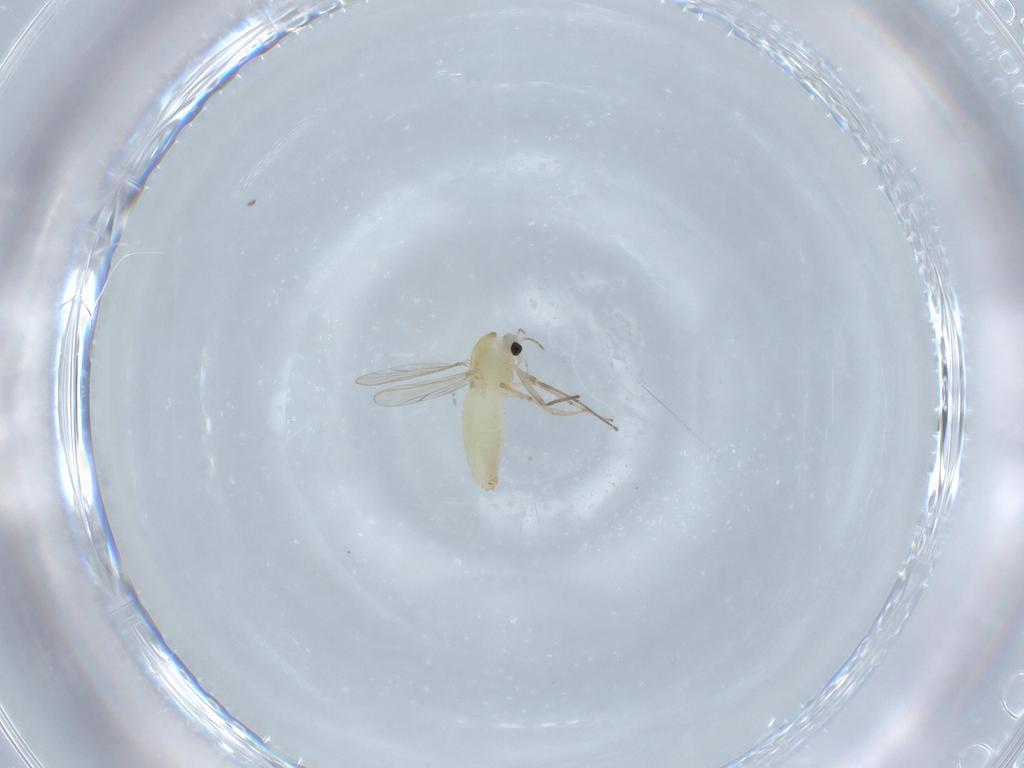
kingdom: Animalia
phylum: Arthropoda
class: Insecta
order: Diptera
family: Chironomidae
